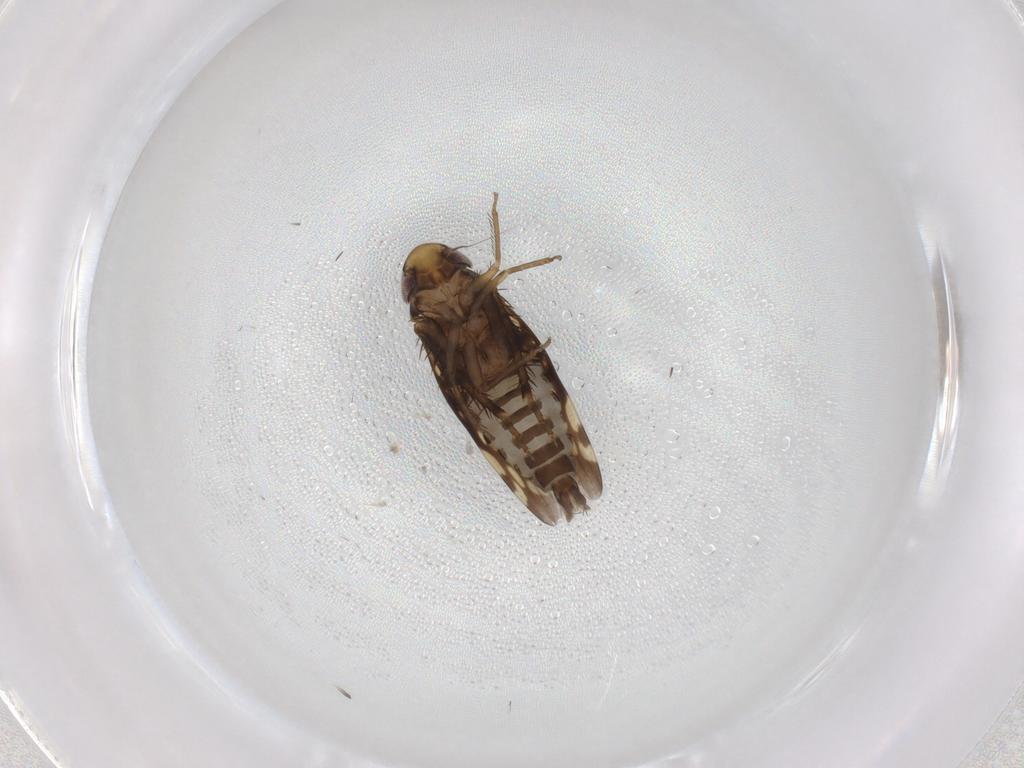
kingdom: Animalia
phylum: Arthropoda
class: Insecta
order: Hemiptera
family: Cicadellidae
